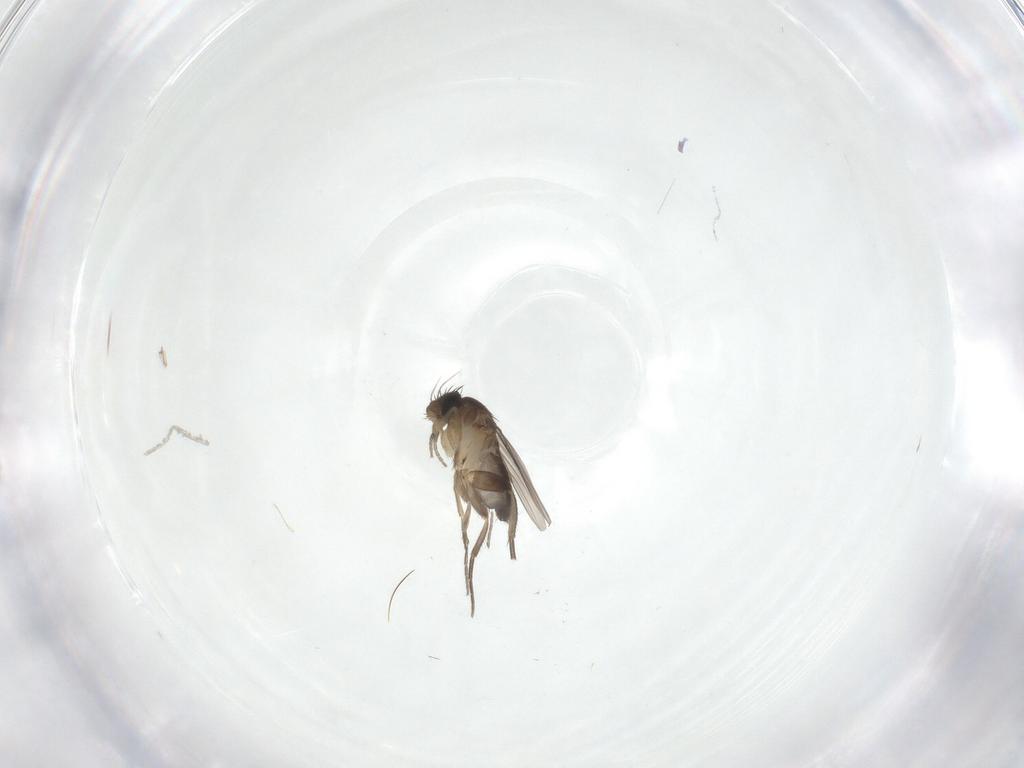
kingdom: Animalia
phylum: Arthropoda
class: Insecta
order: Diptera
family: Phoridae
